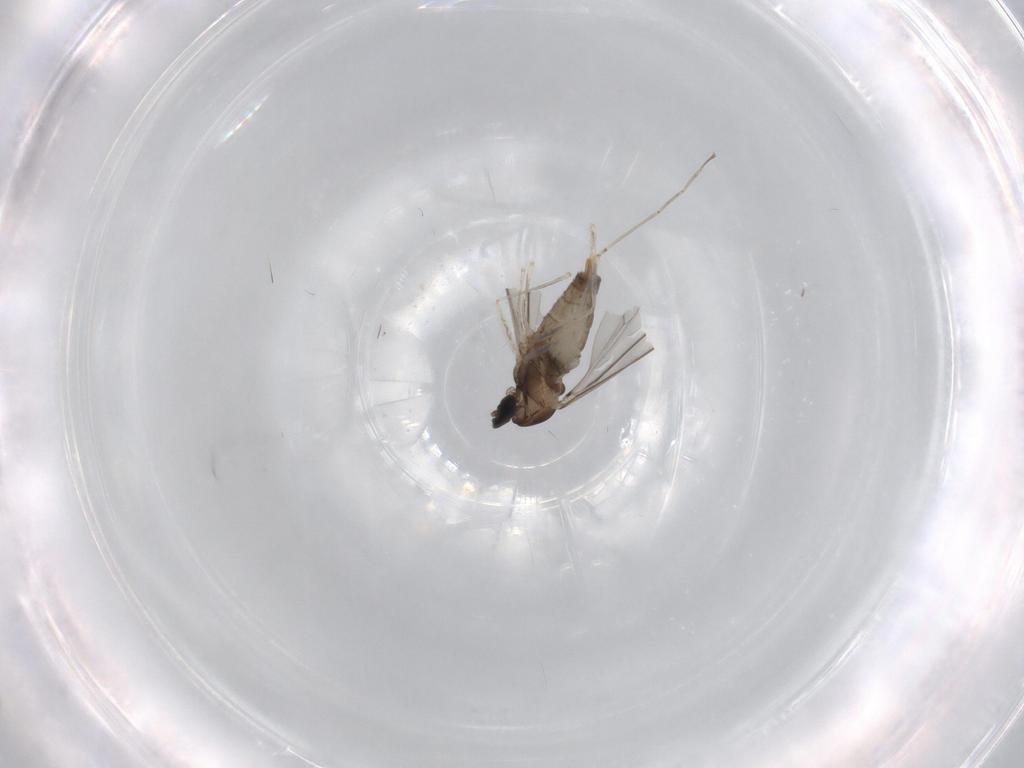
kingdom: Animalia
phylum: Arthropoda
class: Insecta
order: Diptera
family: Cecidomyiidae
